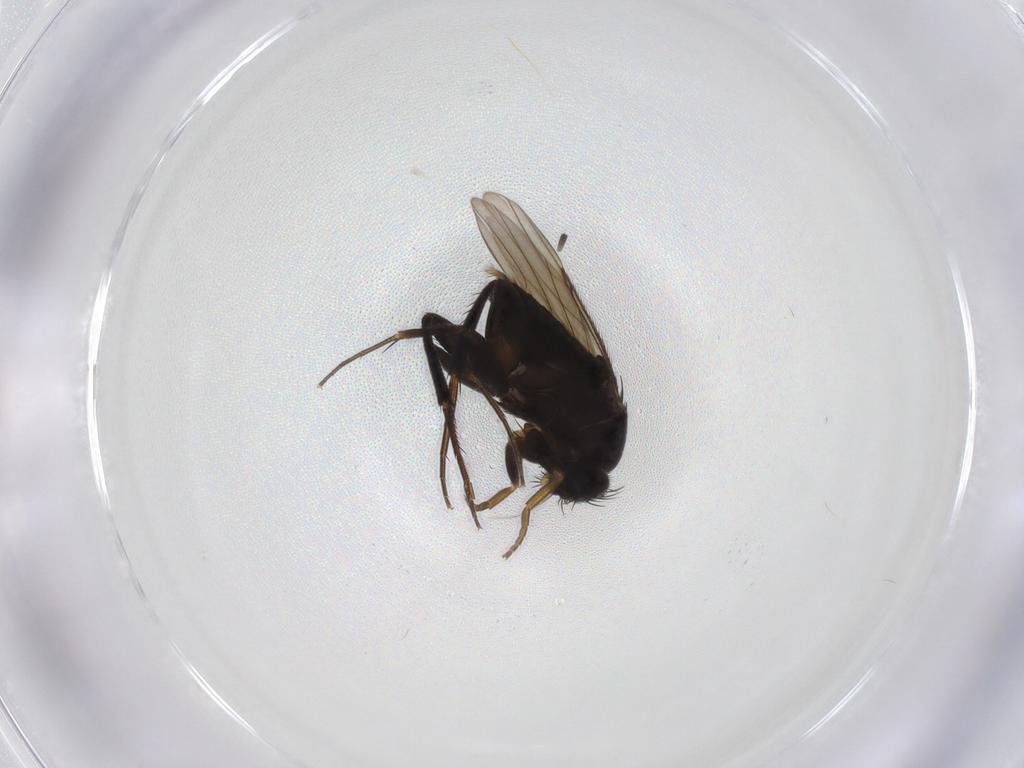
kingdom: Animalia
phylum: Arthropoda
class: Insecta
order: Diptera
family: Phoridae
